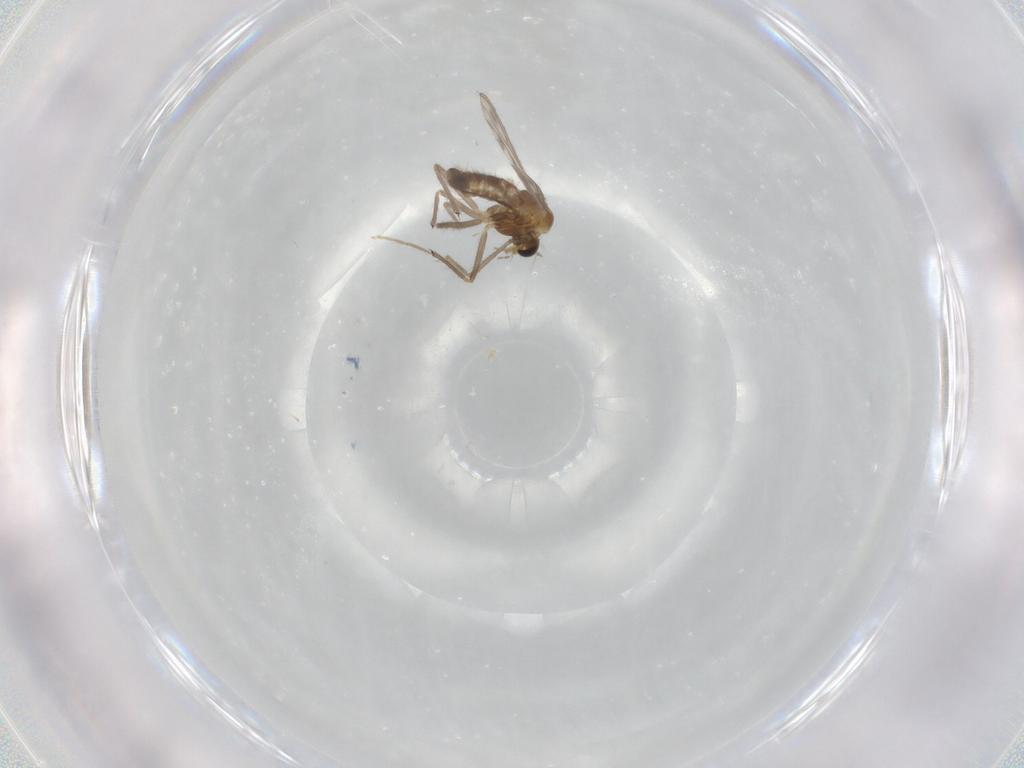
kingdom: Animalia
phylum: Arthropoda
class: Insecta
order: Diptera
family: Chironomidae
